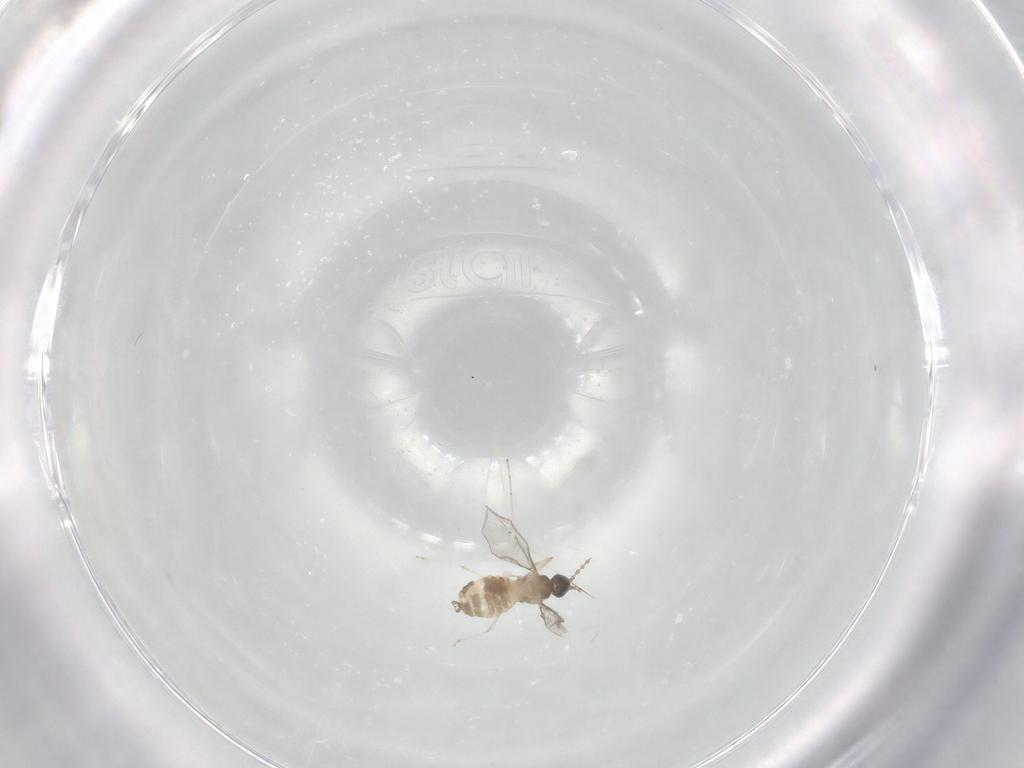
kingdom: Animalia
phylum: Arthropoda
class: Insecta
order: Diptera
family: Cecidomyiidae
